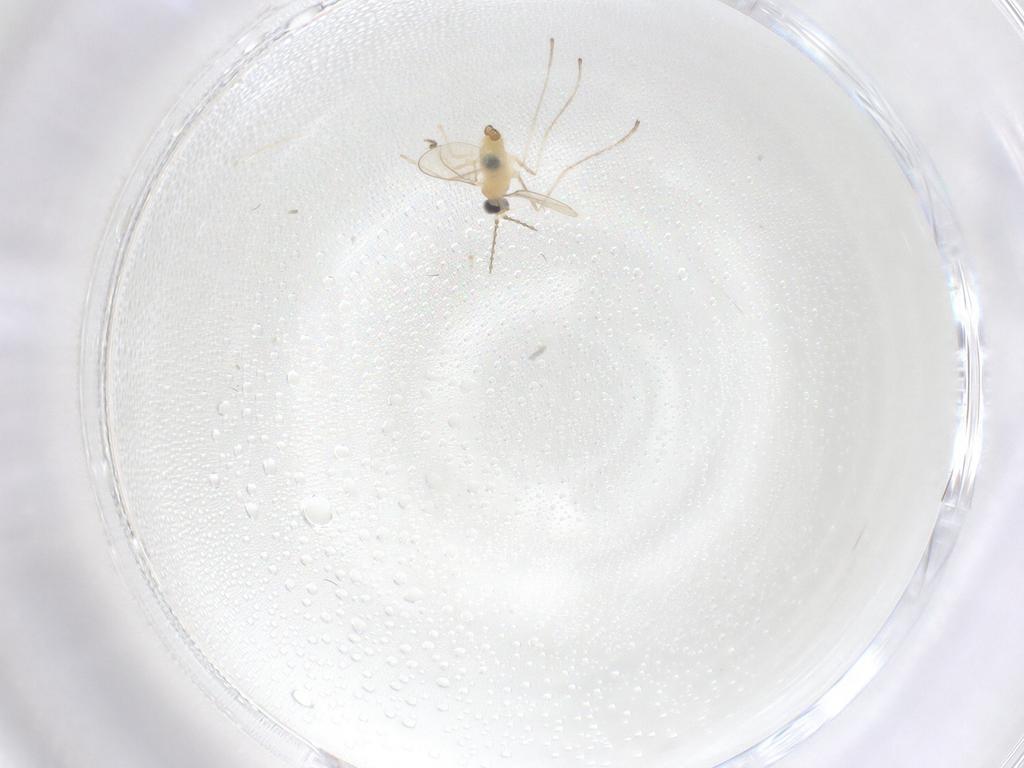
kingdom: Animalia
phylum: Arthropoda
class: Insecta
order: Diptera
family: Cecidomyiidae
